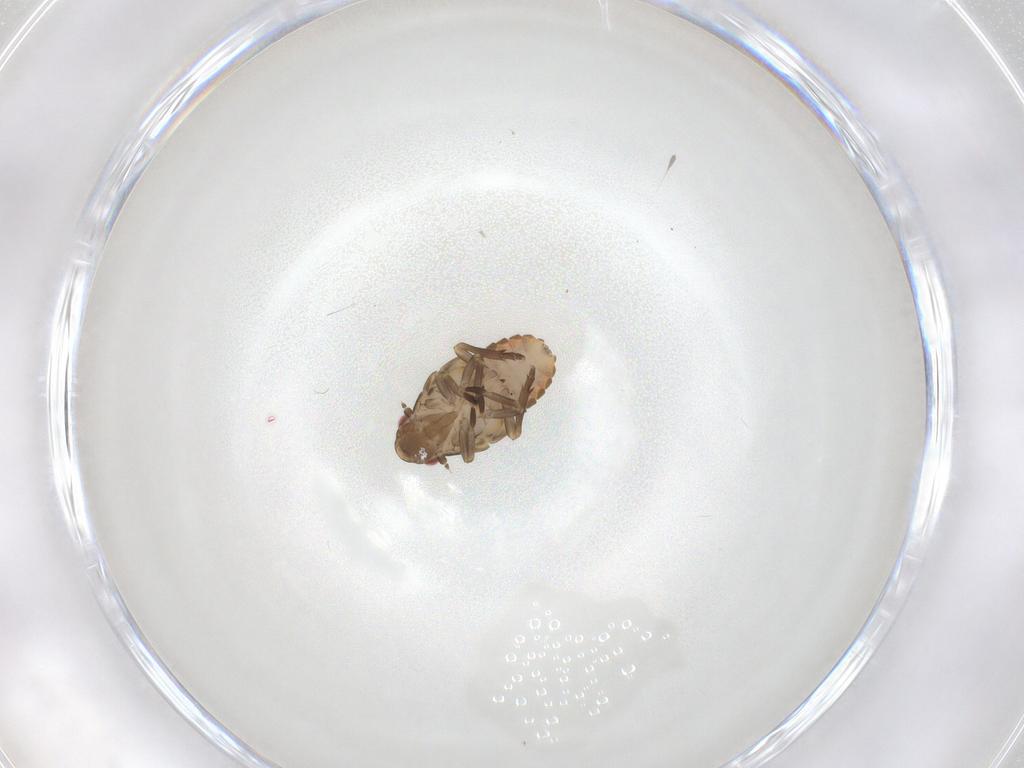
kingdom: Animalia
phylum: Arthropoda
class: Insecta
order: Hemiptera
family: Flatidae
